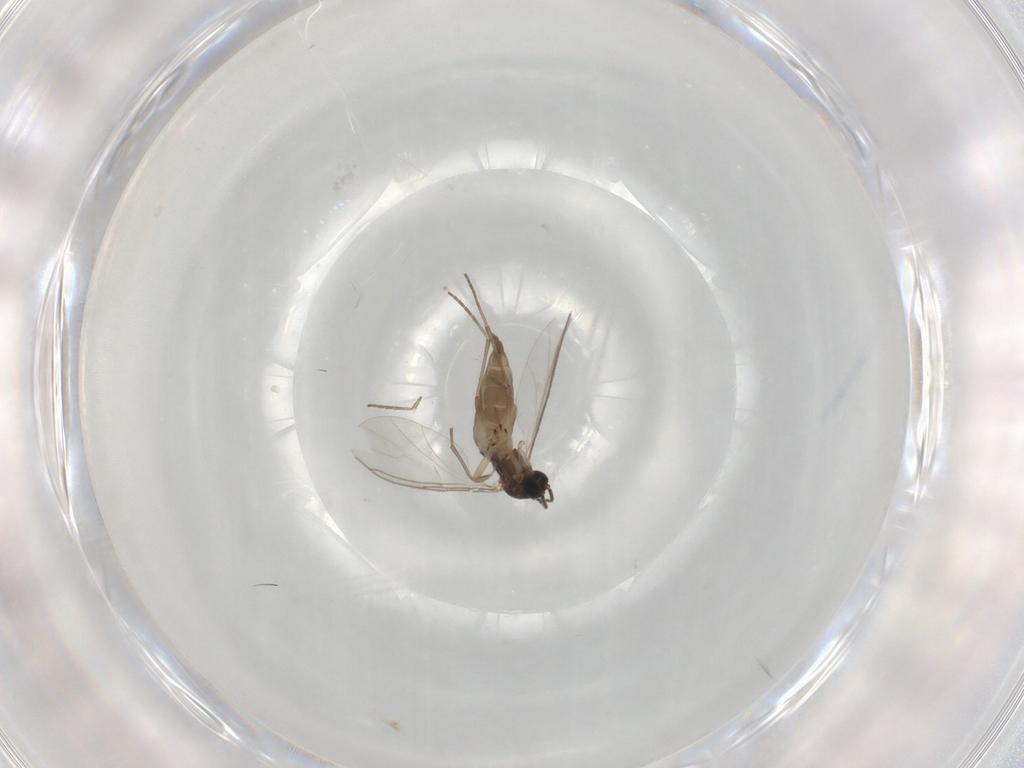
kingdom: Animalia
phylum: Arthropoda
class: Insecta
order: Diptera
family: Sciaridae
